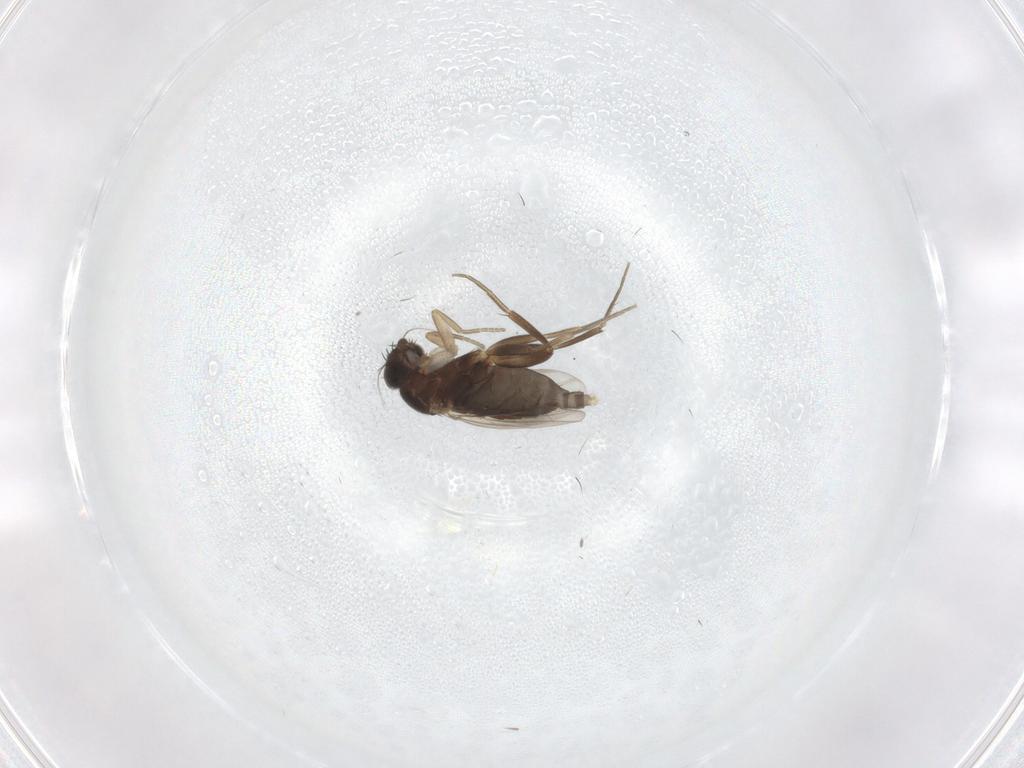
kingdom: Animalia
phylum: Arthropoda
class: Insecta
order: Diptera
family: Phoridae
